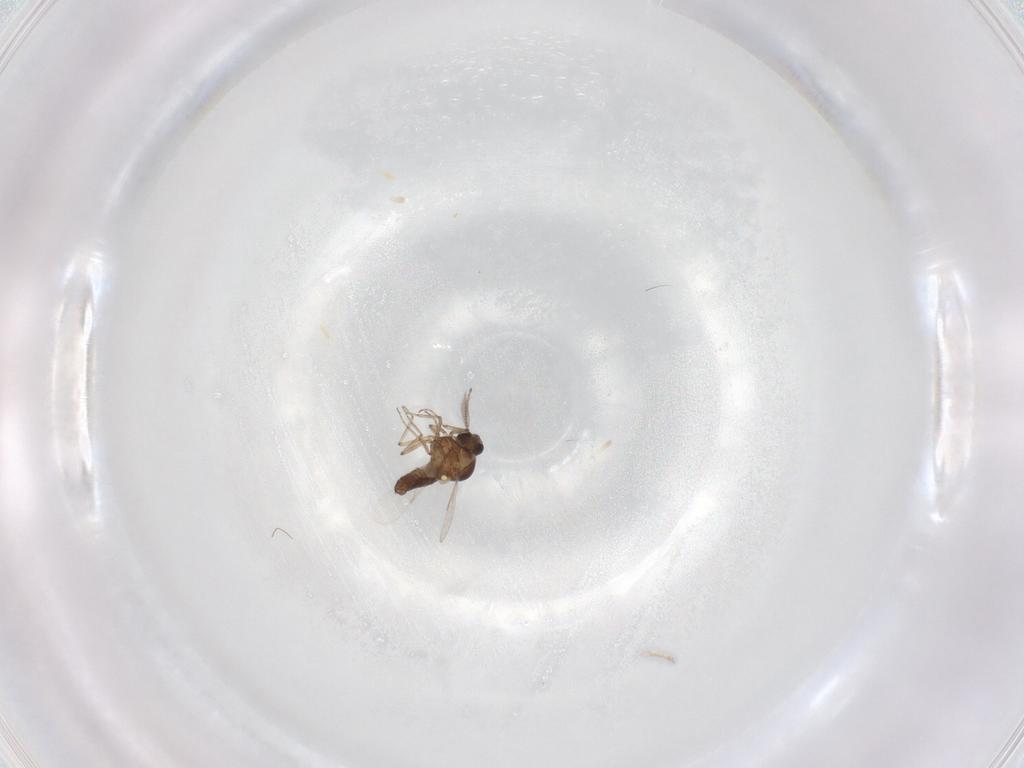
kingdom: Animalia
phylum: Arthropoda
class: Insecta
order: Diptera
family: Ceratopogonidae
